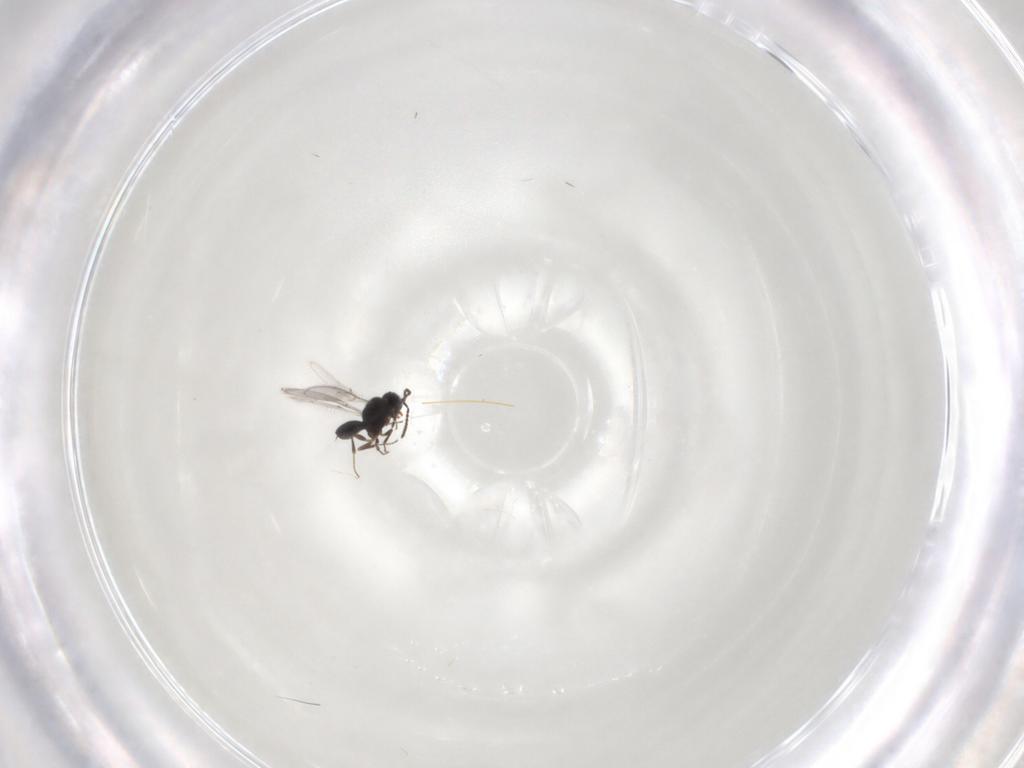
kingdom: Animalia
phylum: Arthropoda
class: Insecta
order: Hymenoptera
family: Scelionidae
